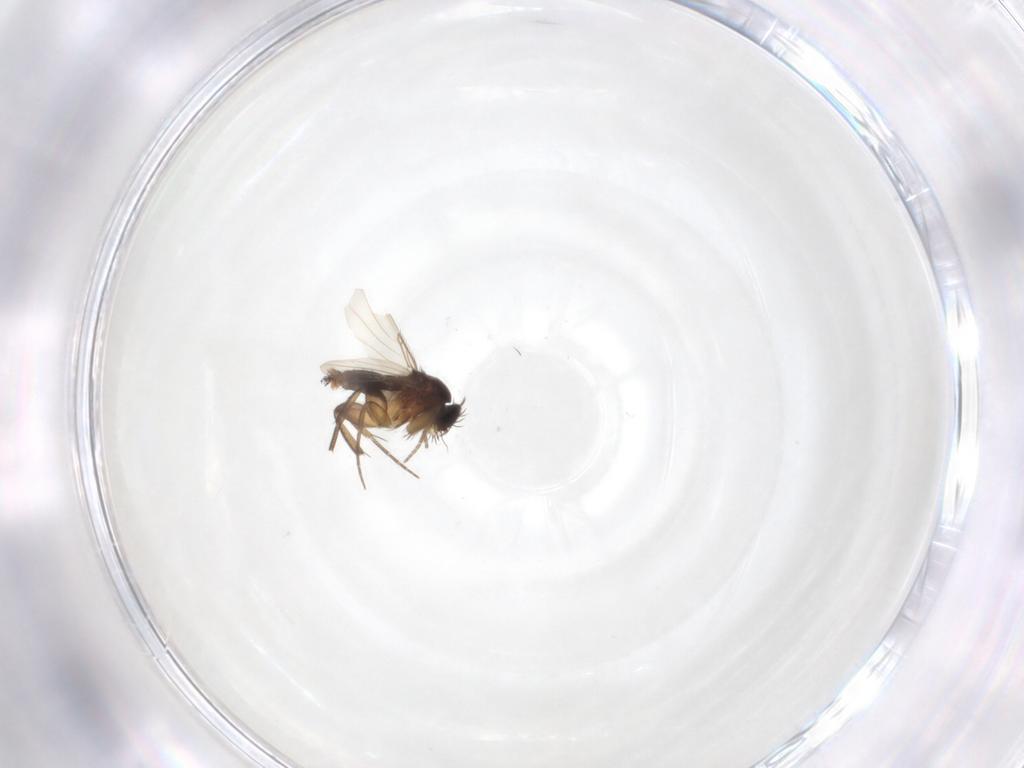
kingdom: Animalia
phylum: Arthropoda
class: Insecta
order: Diptera
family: Phoridae
